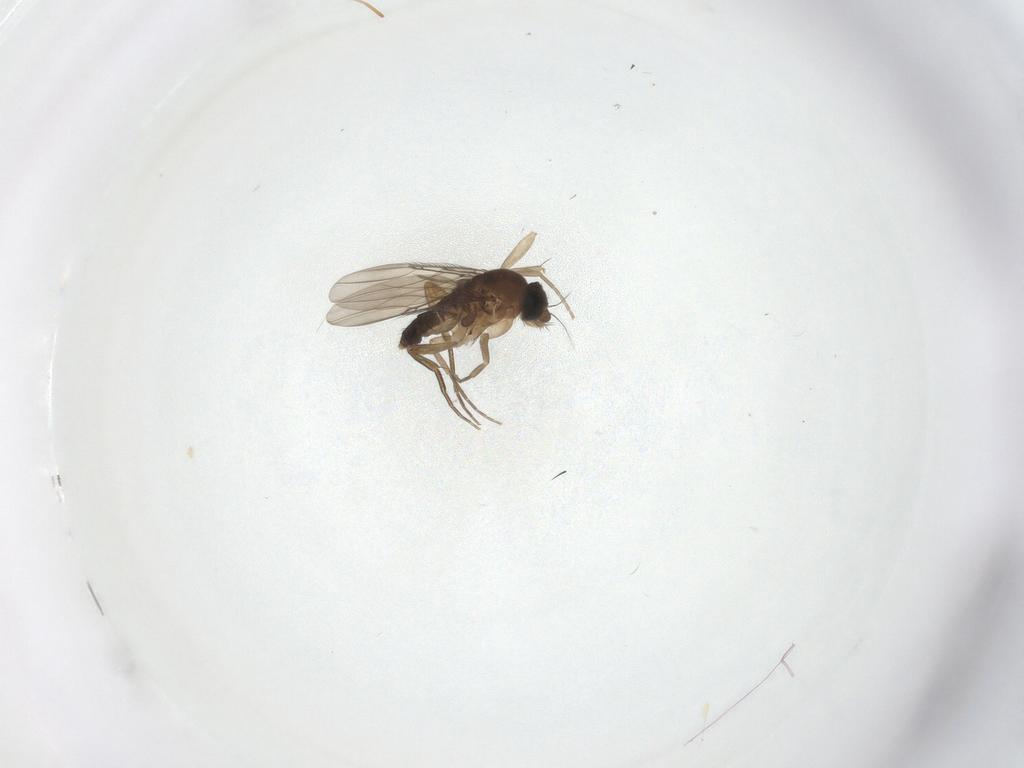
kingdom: Animalia
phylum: Arthropoda
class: Insecta
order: Diptera
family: Phoridae
